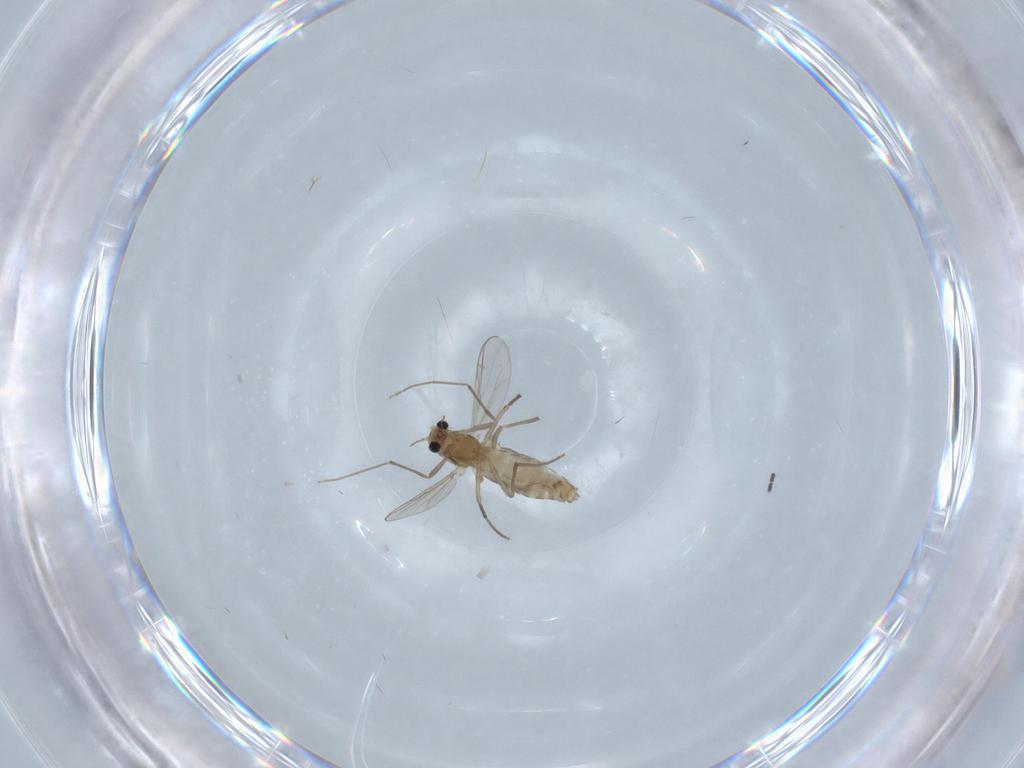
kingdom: Animalia
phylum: Arthropoda
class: Insecta
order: Diptera
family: Chironomidae
